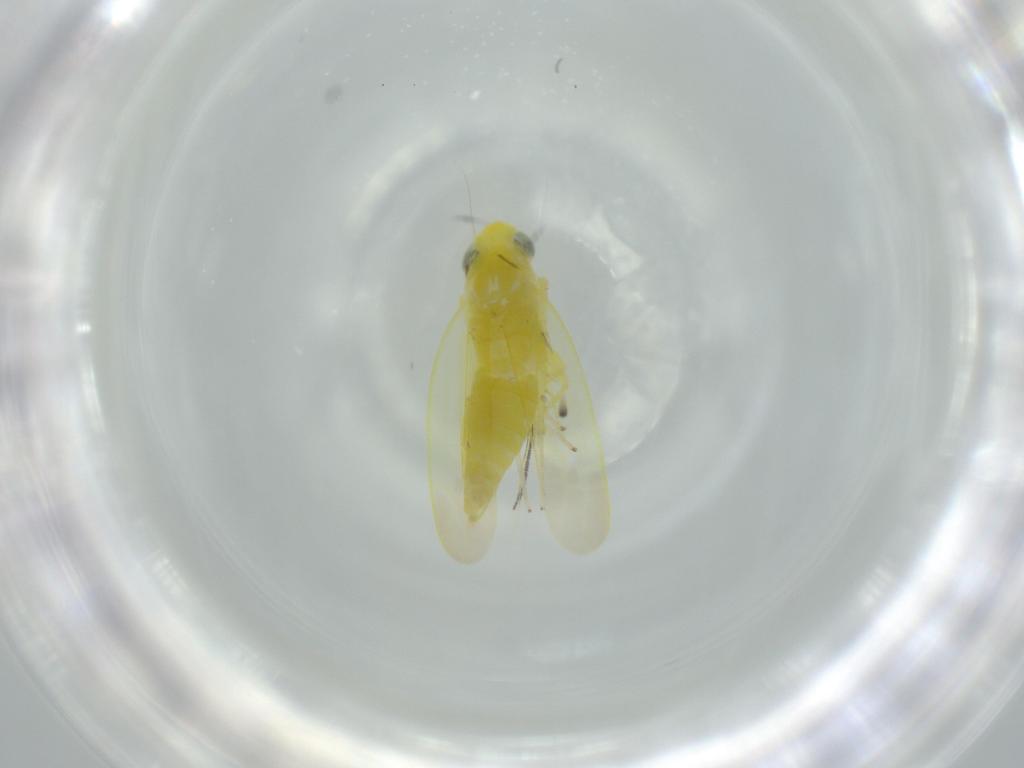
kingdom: Animalia
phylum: Arthropoda
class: Insecta
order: Hemiptera
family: Cicadellidae
